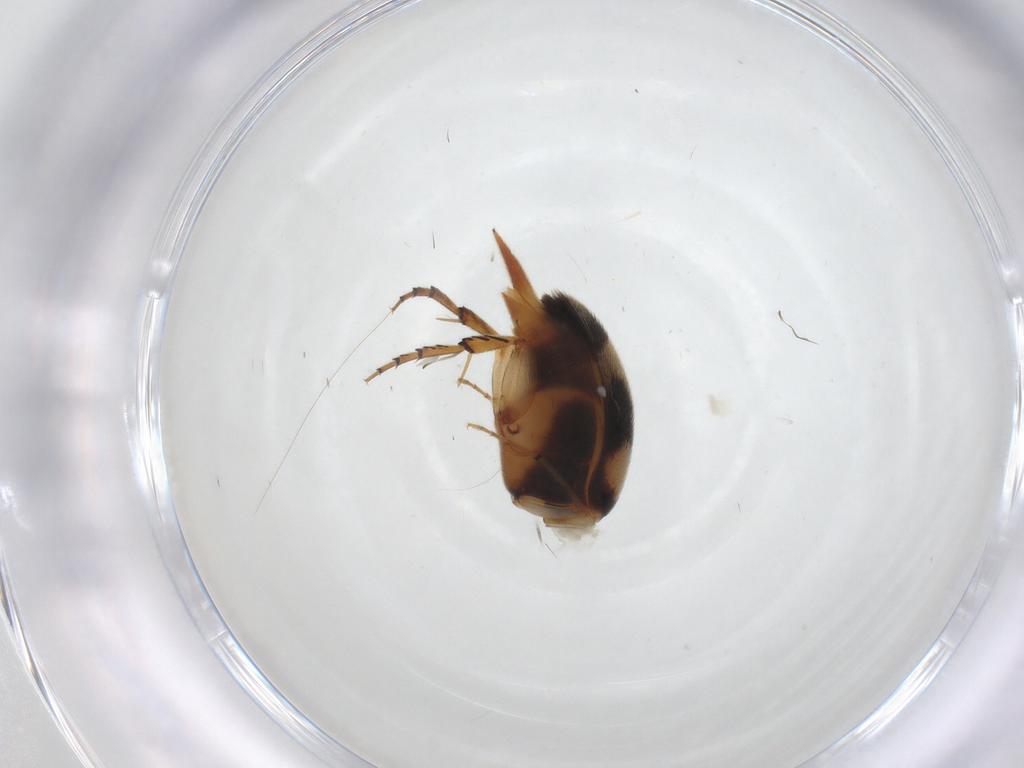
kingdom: Animalia
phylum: Arthropoda
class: Insecta
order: Coleoptera
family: Mordellidae
